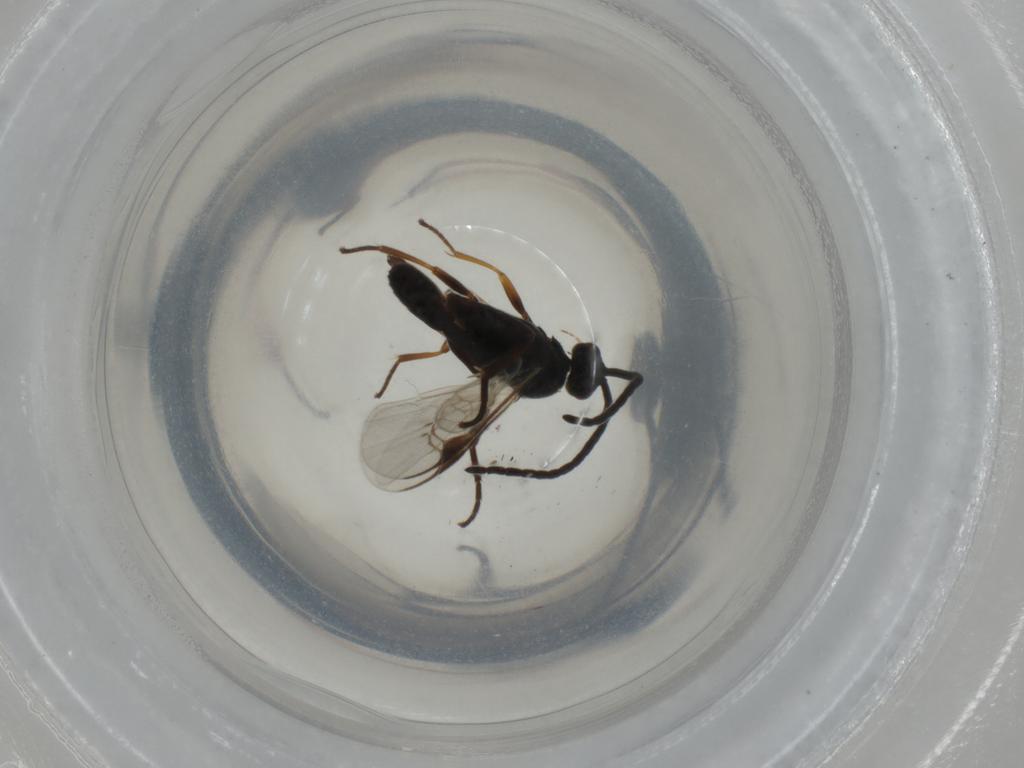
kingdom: Animalia
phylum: Arthropoda
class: Insecta
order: Hymenoptera
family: Braconidae
